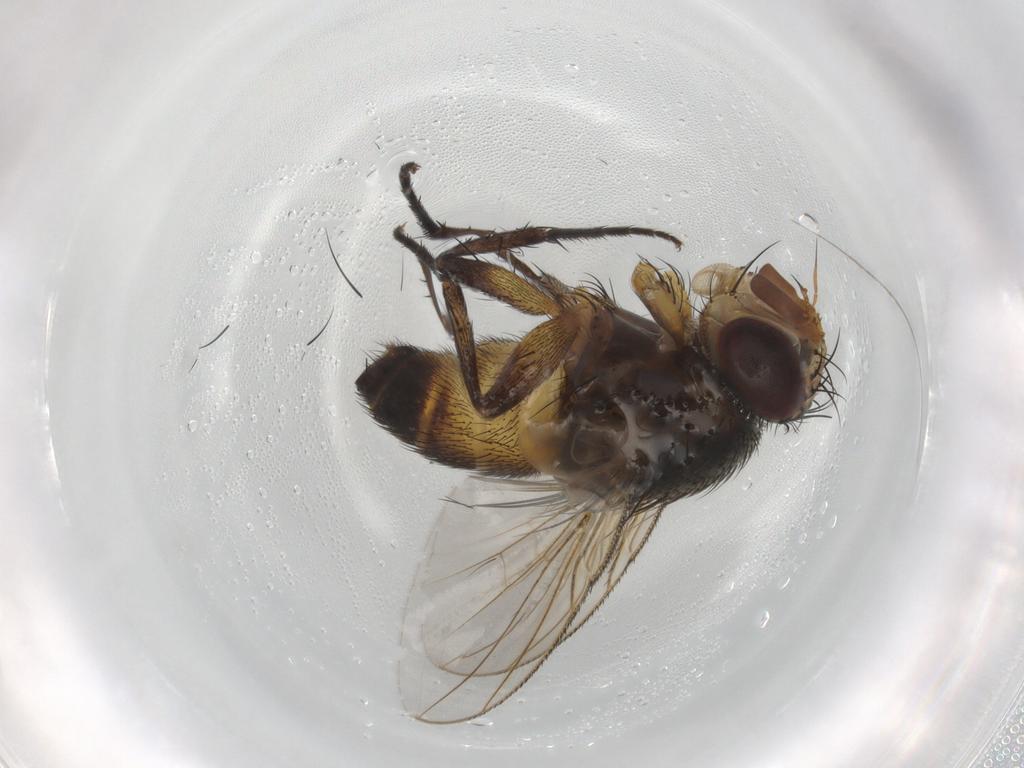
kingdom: Animalia
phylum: Arthropoda
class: Insecta
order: Diptera
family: Tachinidae
